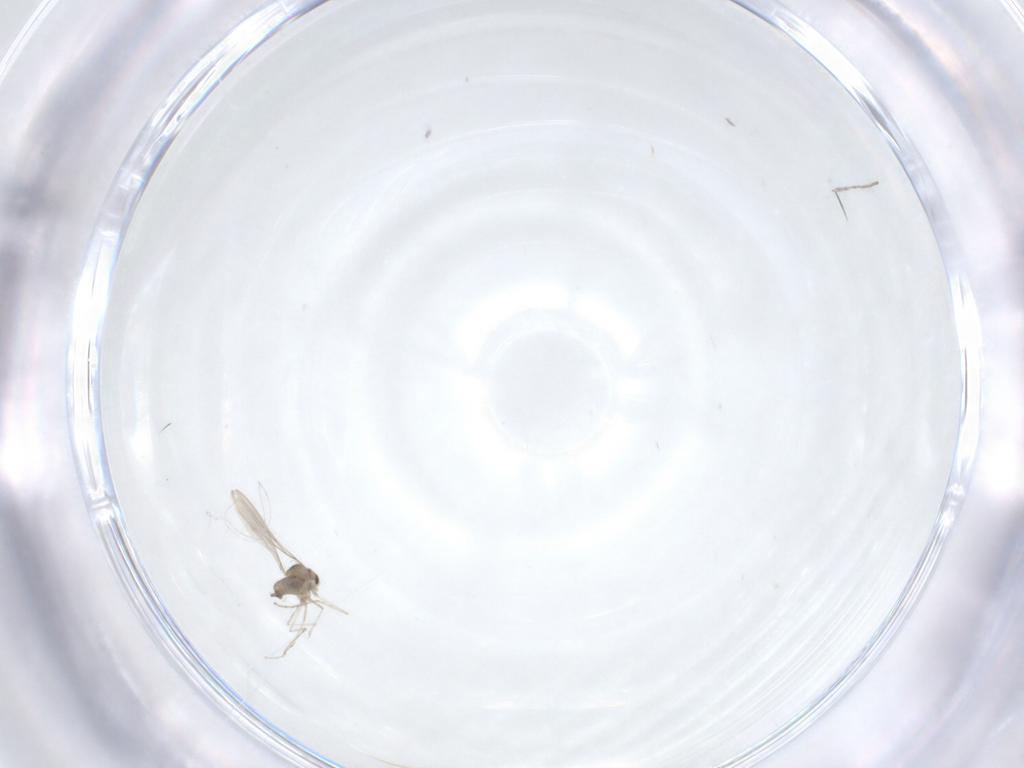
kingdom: Animalia
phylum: Arthropoda
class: Insecta
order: Diptera
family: Cecidomyiidae
